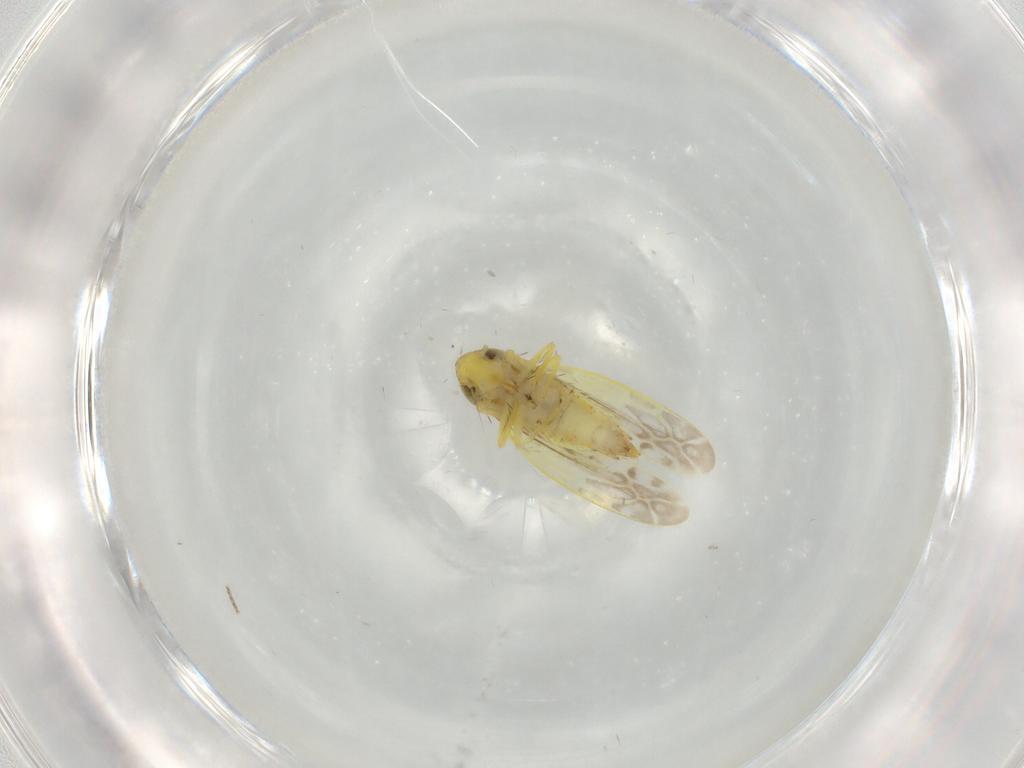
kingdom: Animalia
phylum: Arthropoda
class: Insecta
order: Hemiptera
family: Cicadellidae
